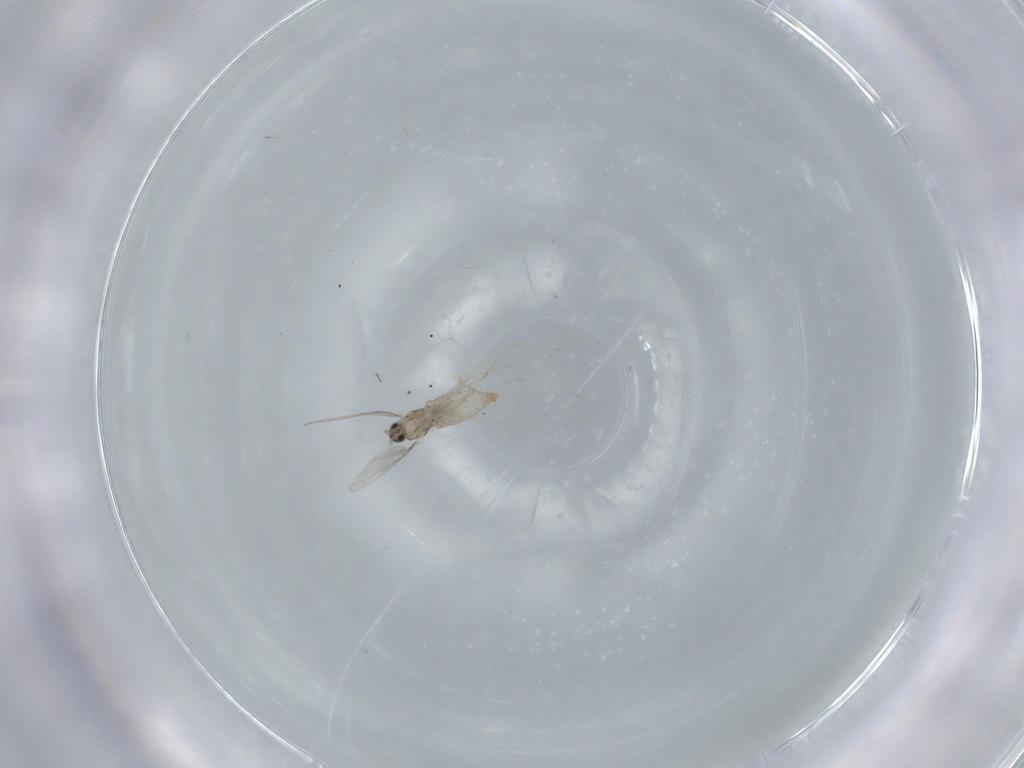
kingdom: Animalia
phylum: Arthropoda
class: Insecta
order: Diptera
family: Cecidomyiidae
